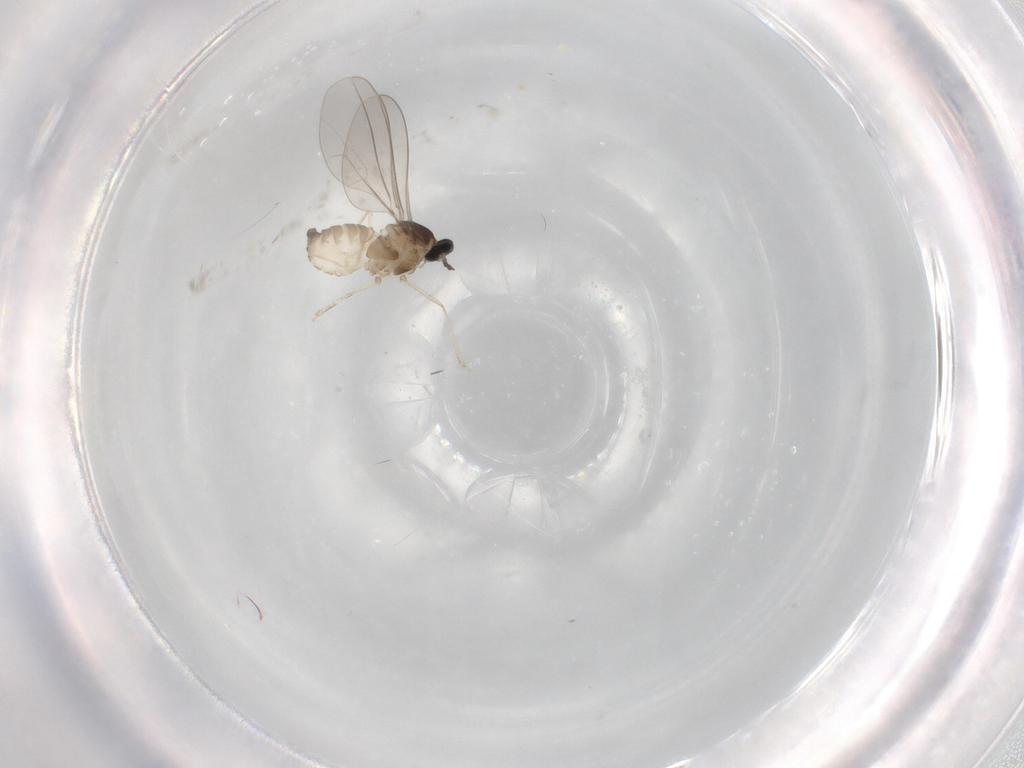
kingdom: Animalia
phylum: Arthropoda
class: Insecta
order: Diptera
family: Cecidomyiidae
